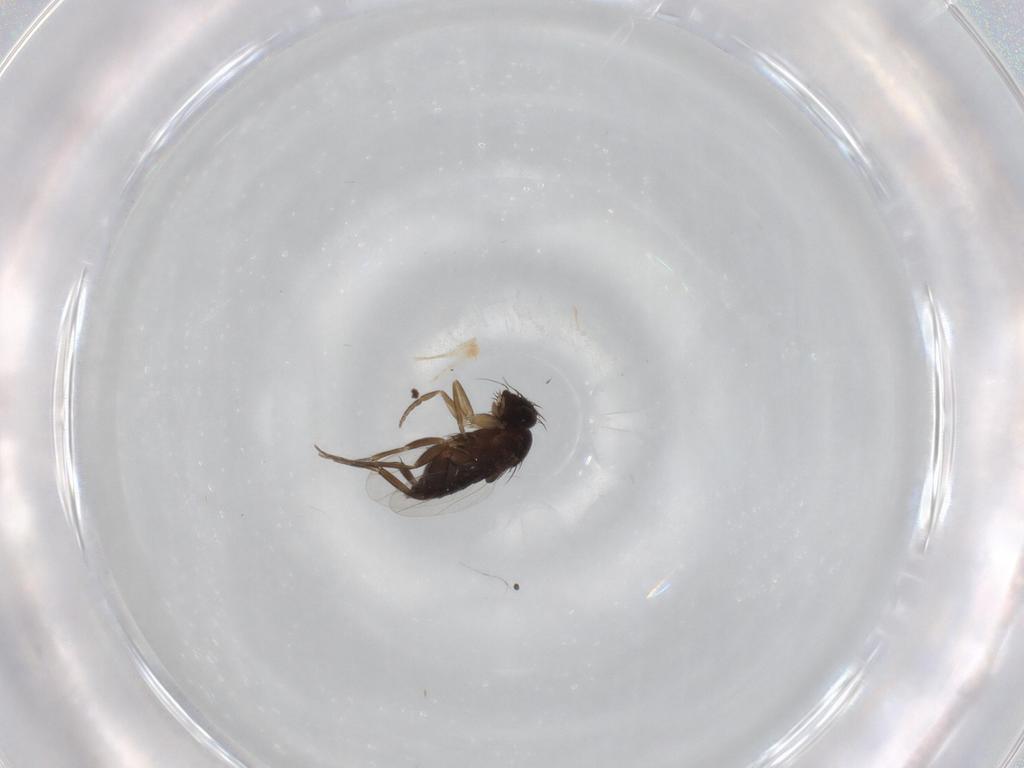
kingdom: Animalia
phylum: Arthropoda
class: Insecta
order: Diptera
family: Phoridae
